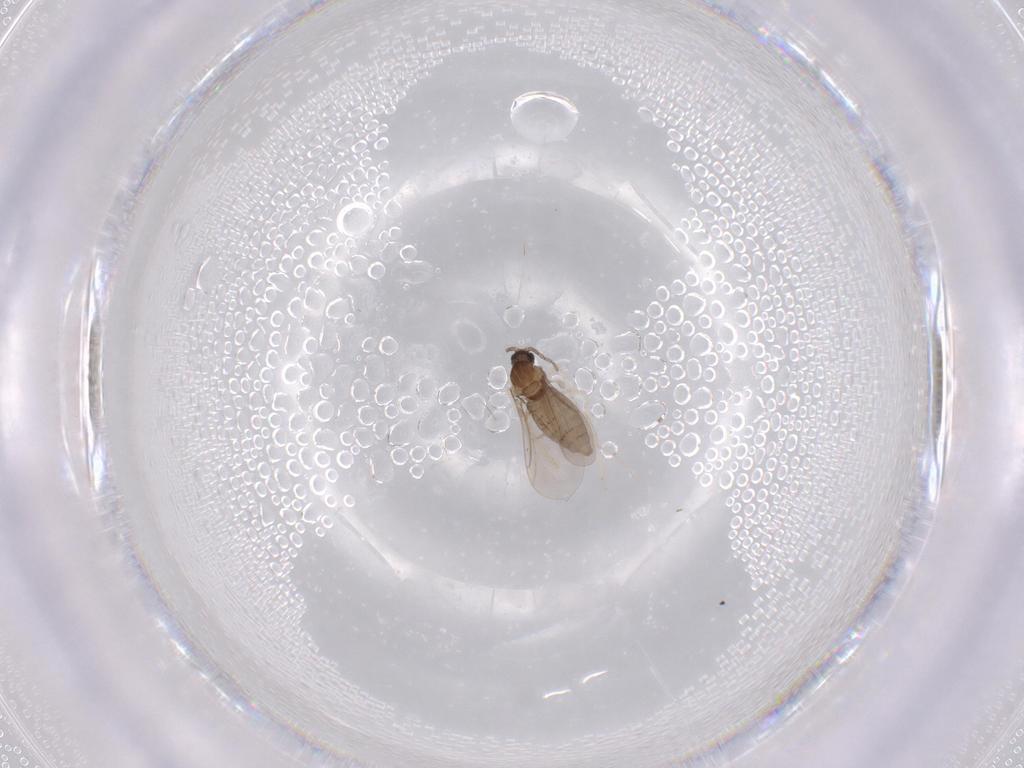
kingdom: Animalia
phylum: Arthropoda
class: Insecta
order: Diptera
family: Cecidomyiidae
